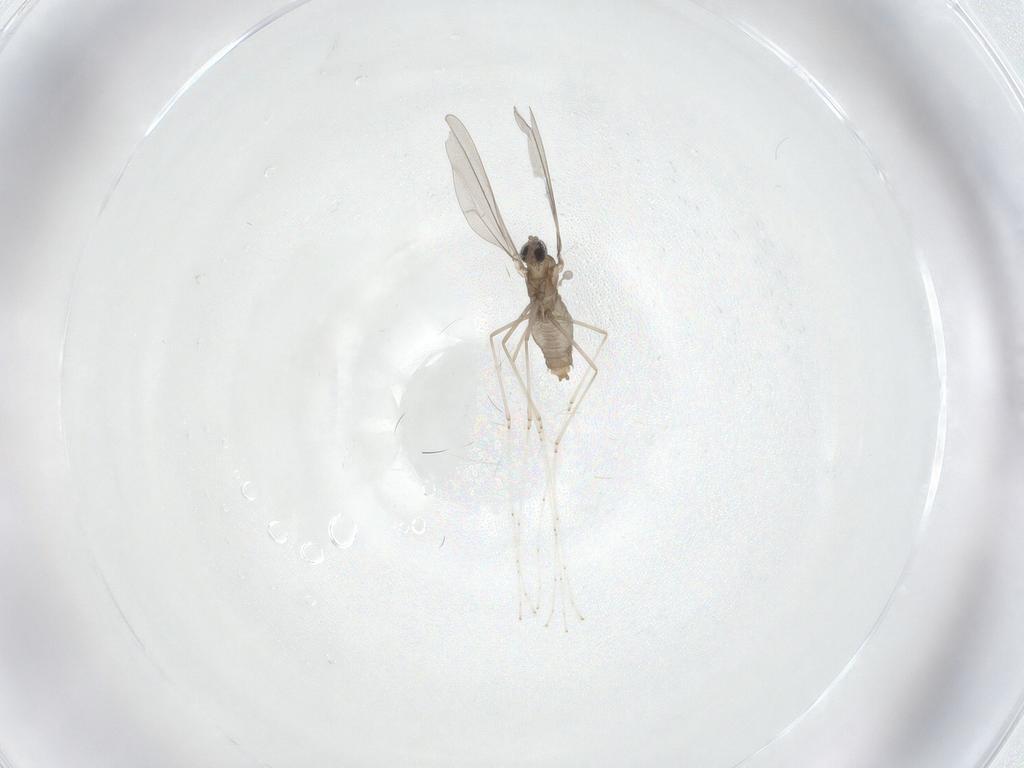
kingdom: Animalia
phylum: Arthropoda
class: Insecta
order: Diptera
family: Cecidomyiidae
